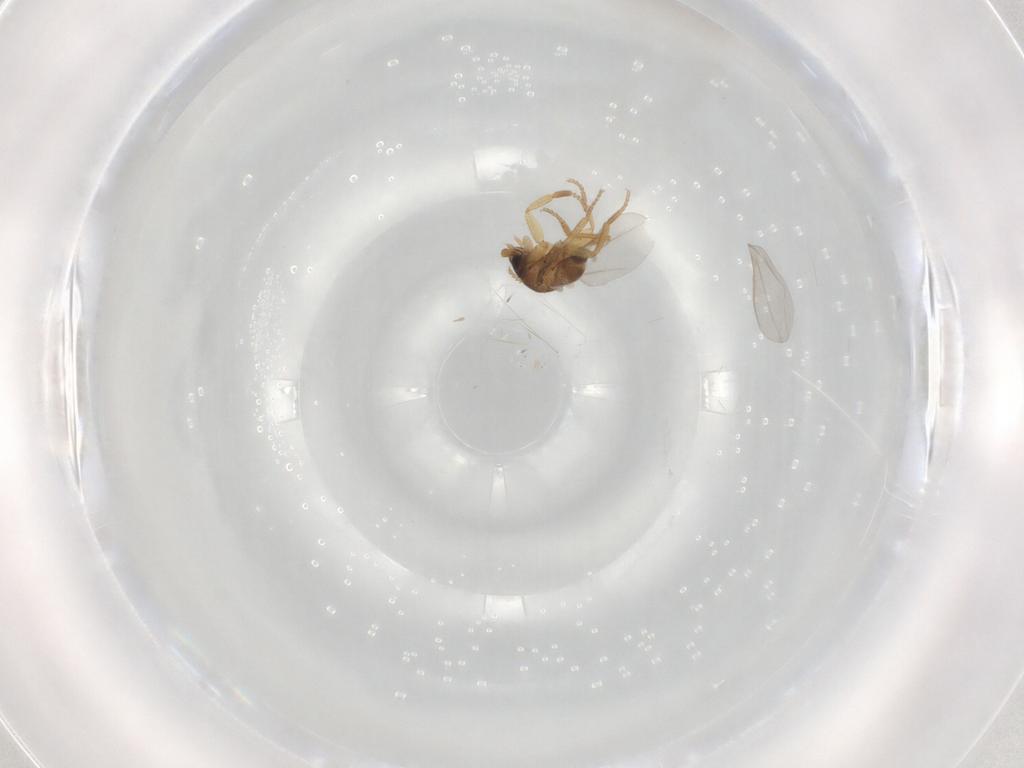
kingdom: Animalia
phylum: Arthropoda
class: Insecta
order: Diptera
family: Phoridae
